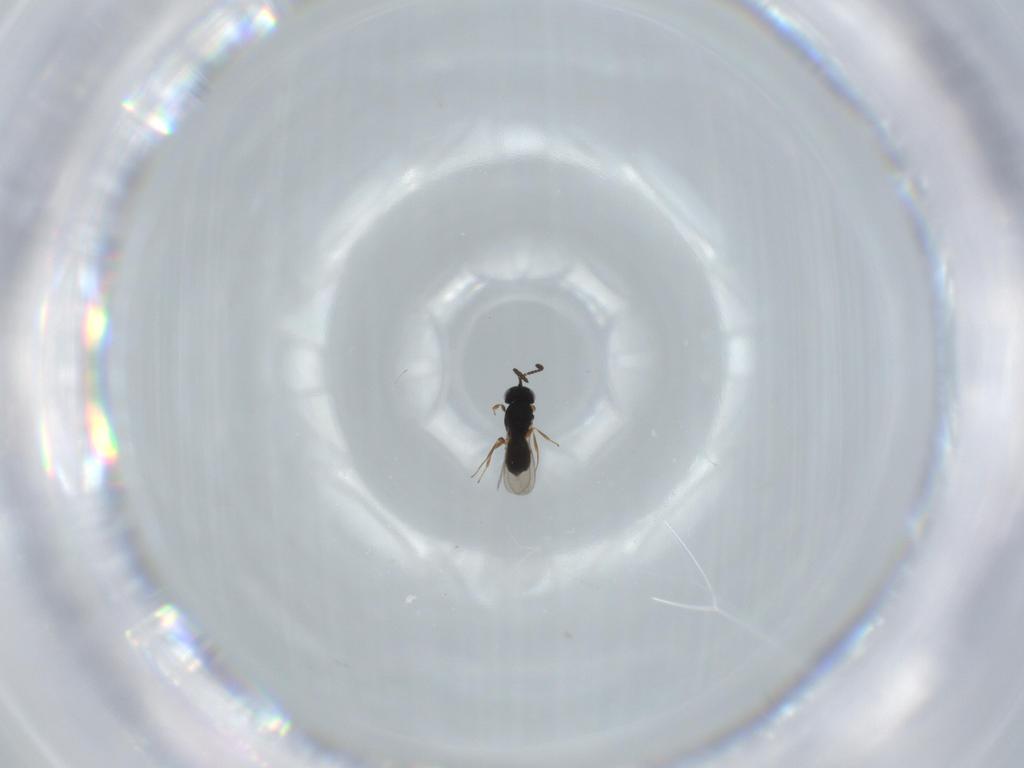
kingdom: Animalia
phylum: Arthropoda
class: Insecta
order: Hymenoptera
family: Scelionidae
